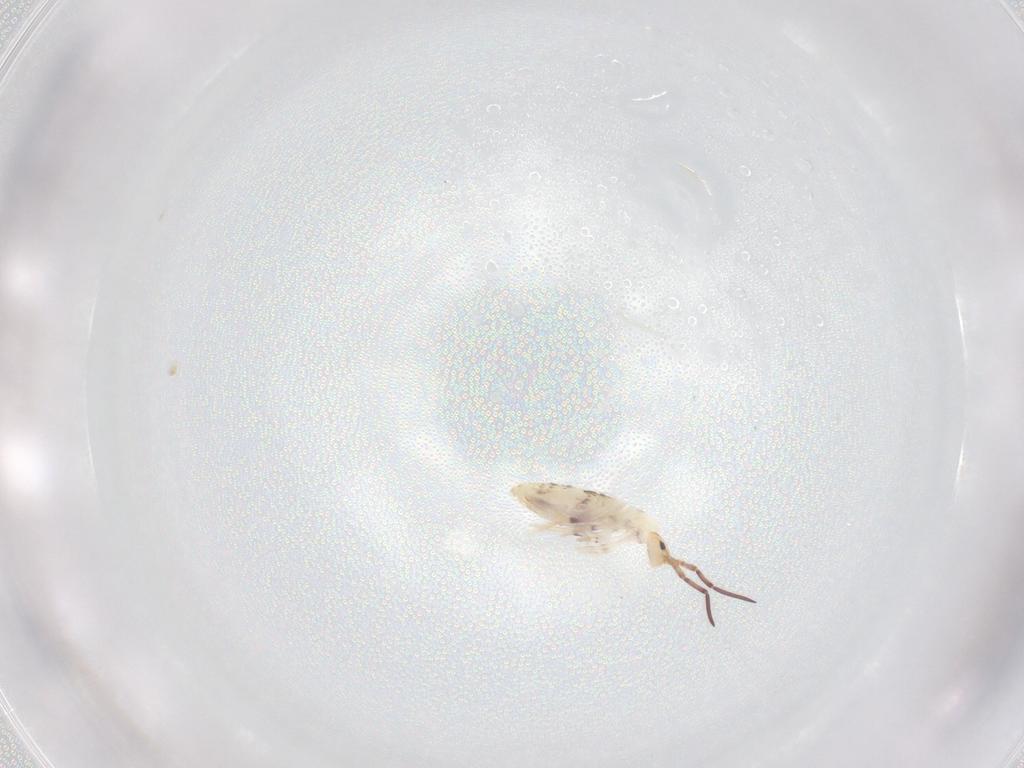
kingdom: Animalia
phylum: Arthropoda
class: Collembola
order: Poduromorpha
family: Hypogastruridae
